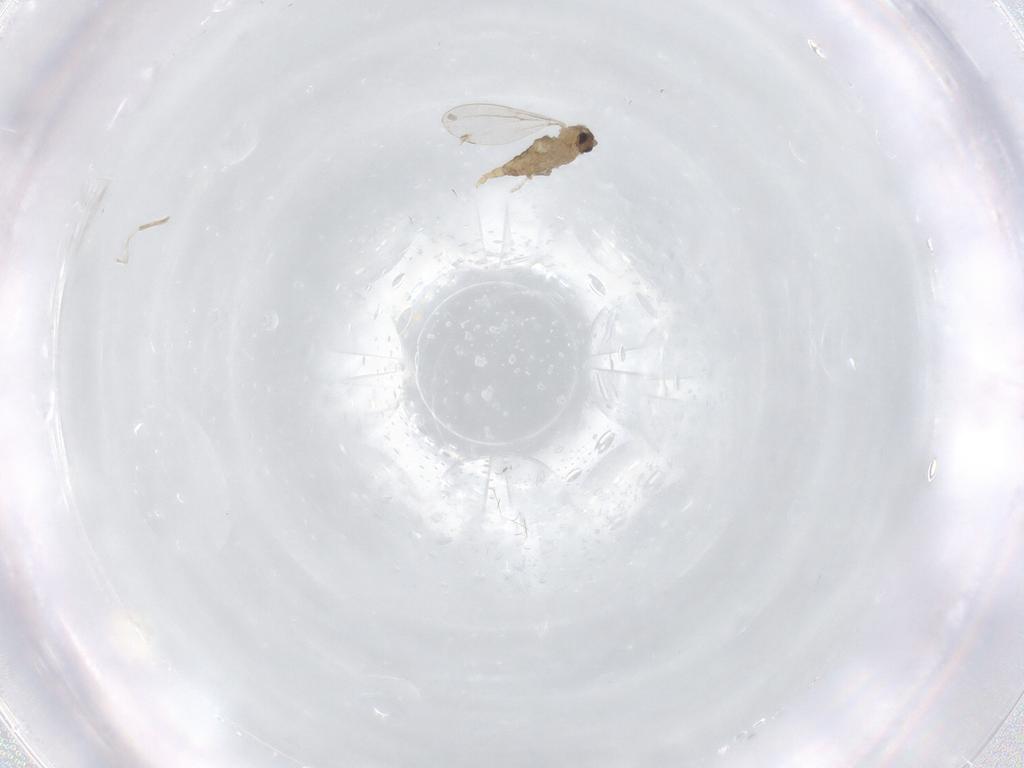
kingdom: Animalia
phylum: Arthropoda
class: Insecta
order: Diptera
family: Cecidomyiidae
